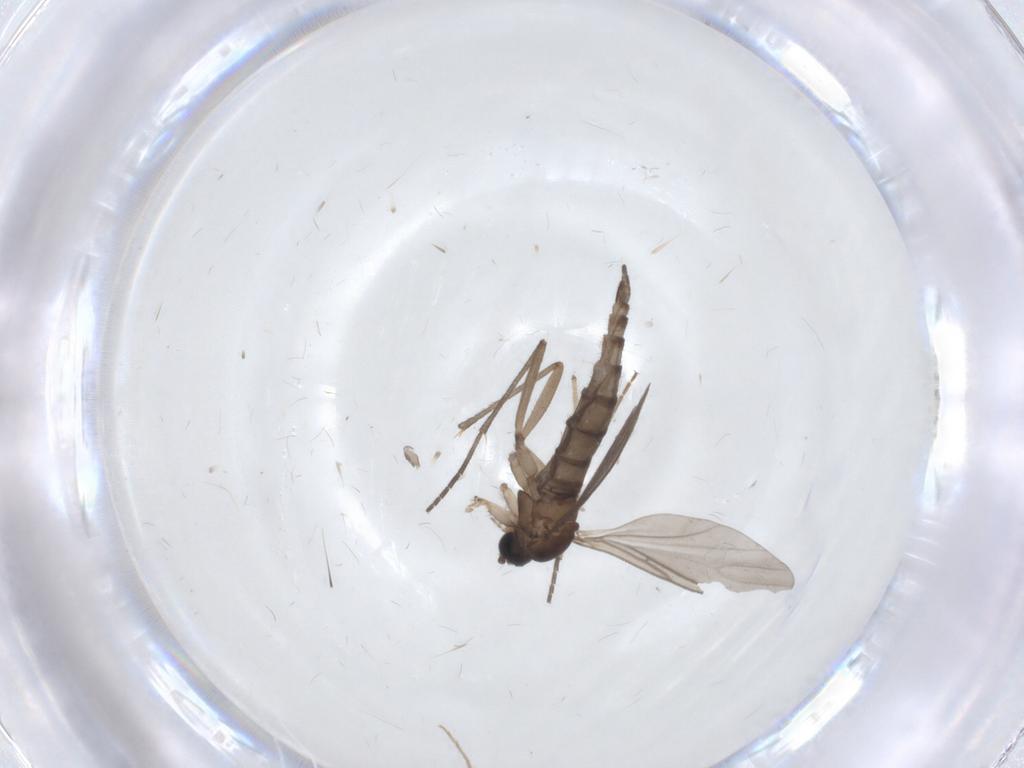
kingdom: Animalia
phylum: Arthropoda
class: Insecta
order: Diptera
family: Sciaridae
